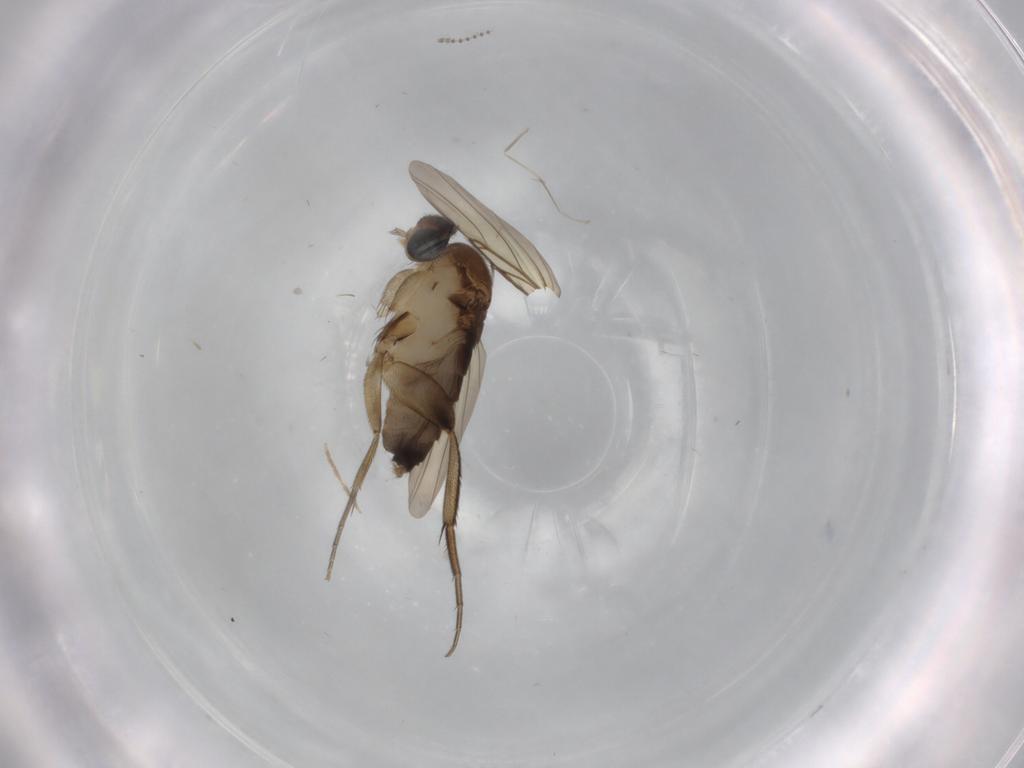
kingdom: Animalia
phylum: Arthropoda
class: Insecta
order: Diptera
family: Phoridae
